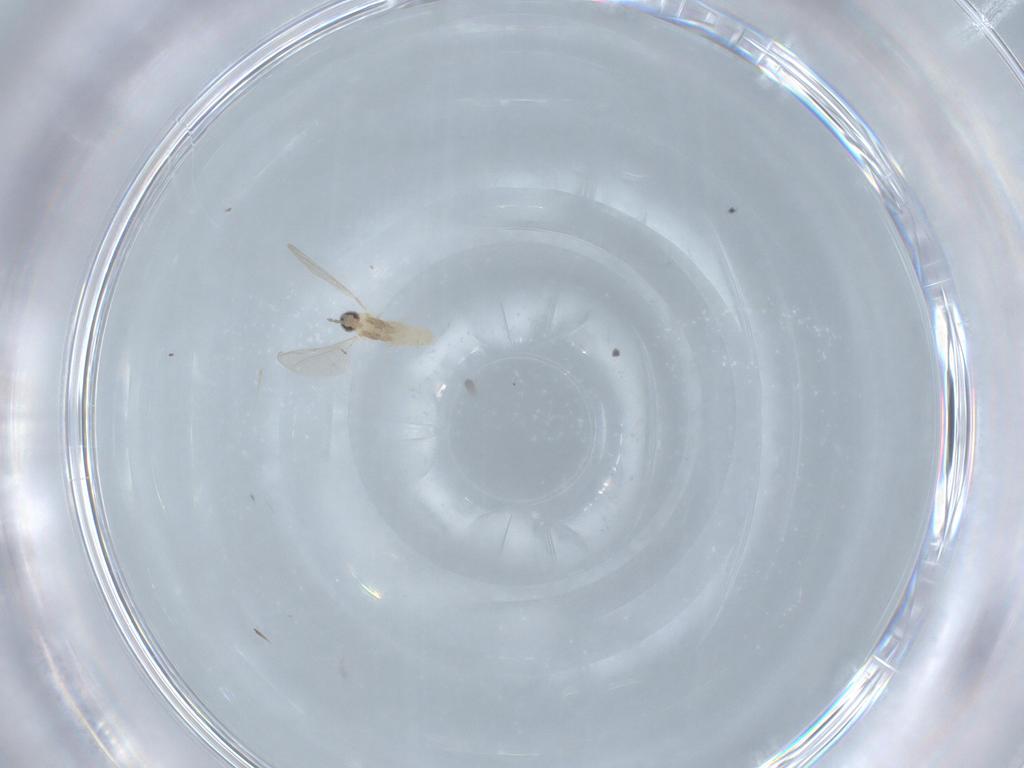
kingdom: Animalia
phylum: Arthropoda
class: Insecta
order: Diptera
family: Cecidomyiidae
